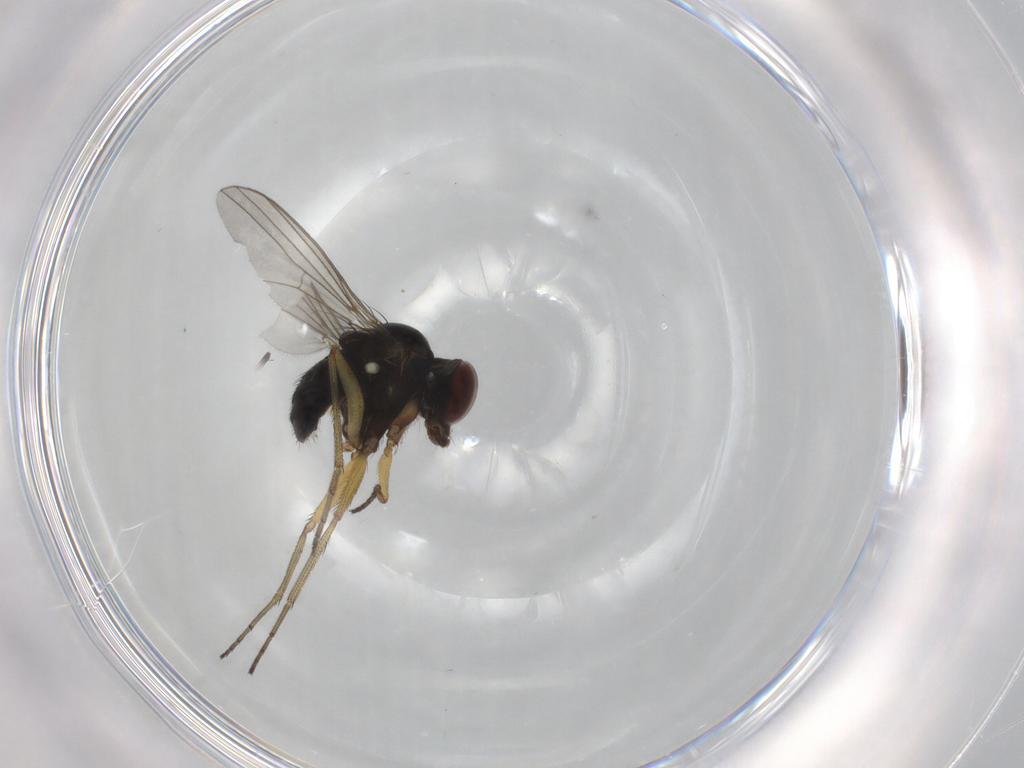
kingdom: Animalia
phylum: Arthropoda
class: Insecta
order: Diptera
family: Dolichopodidae
